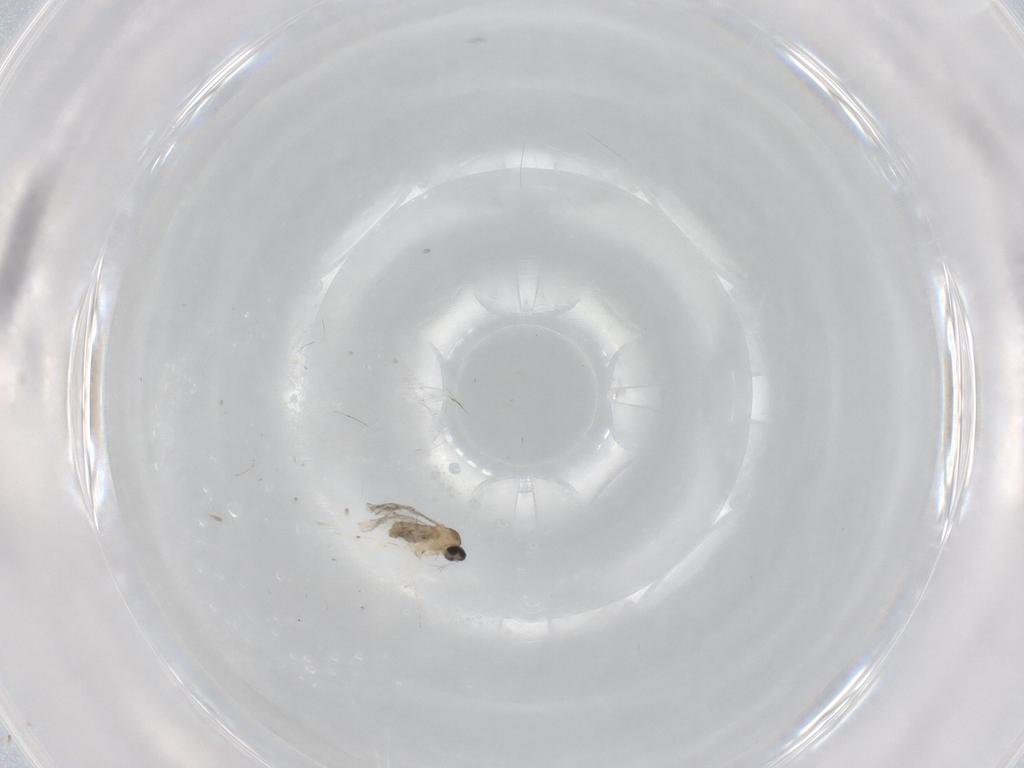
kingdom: Animalia
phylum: Arthropoda
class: Insecta
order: Diptera
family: Cecidomyiidae
